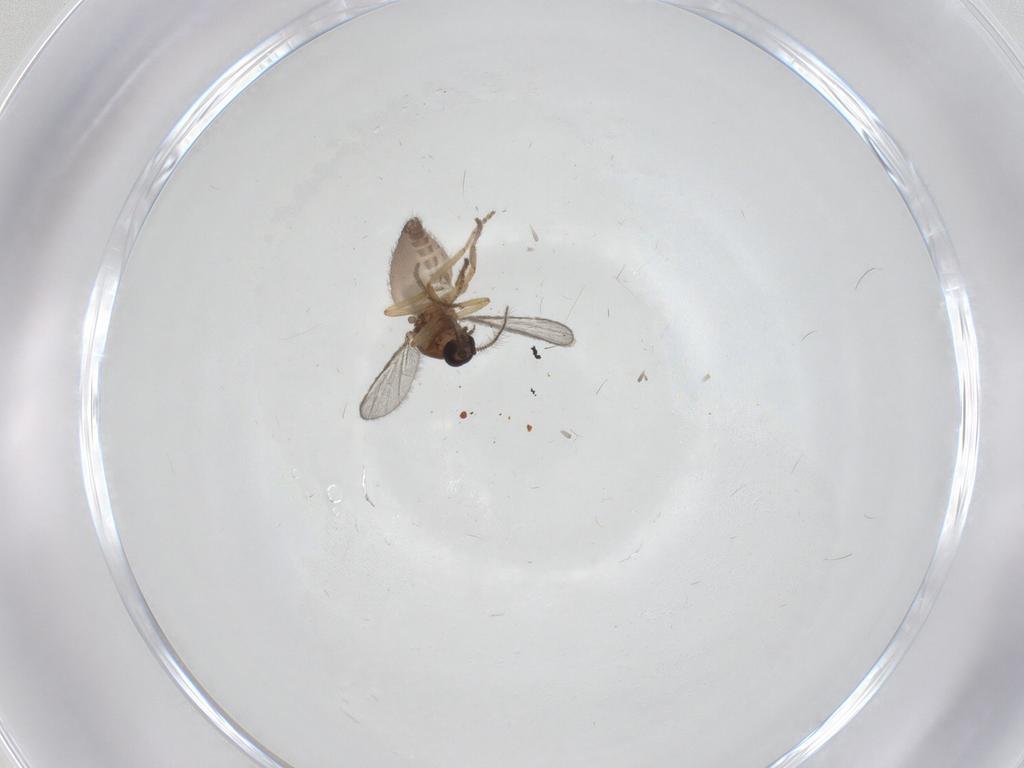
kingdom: Animalia
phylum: Arthropoda
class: Insecta
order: Diptera
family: Ceratopogonidae
